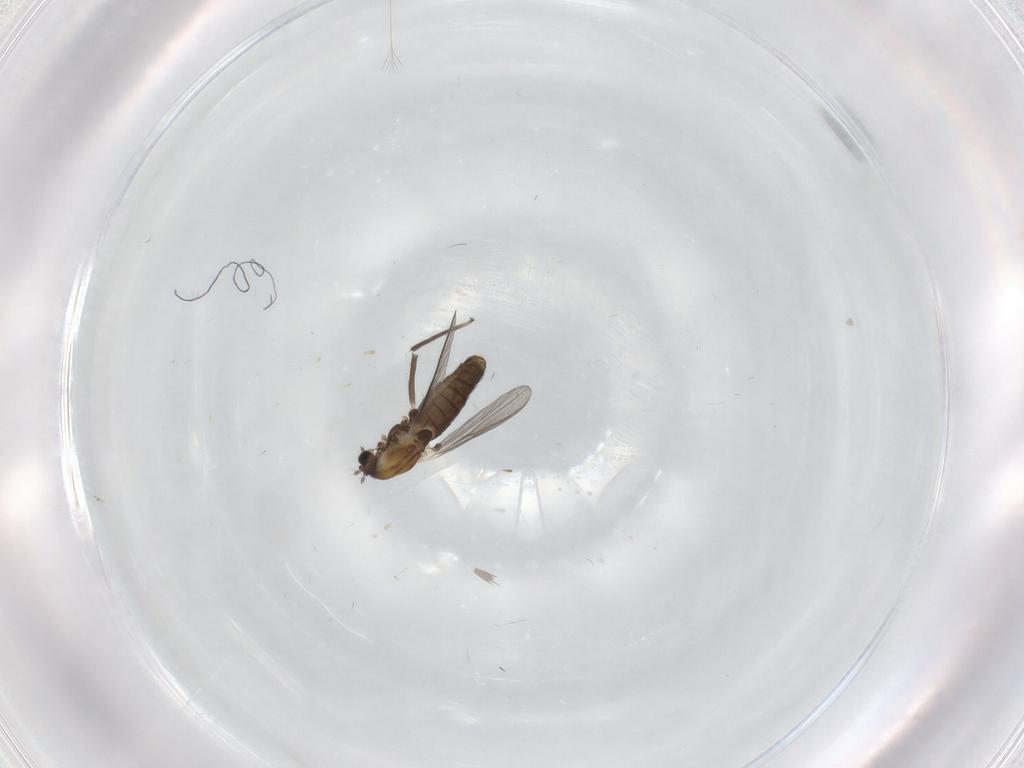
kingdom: Animalia
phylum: Arthropoda
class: Insecta
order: Diptera
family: Chironomidae
